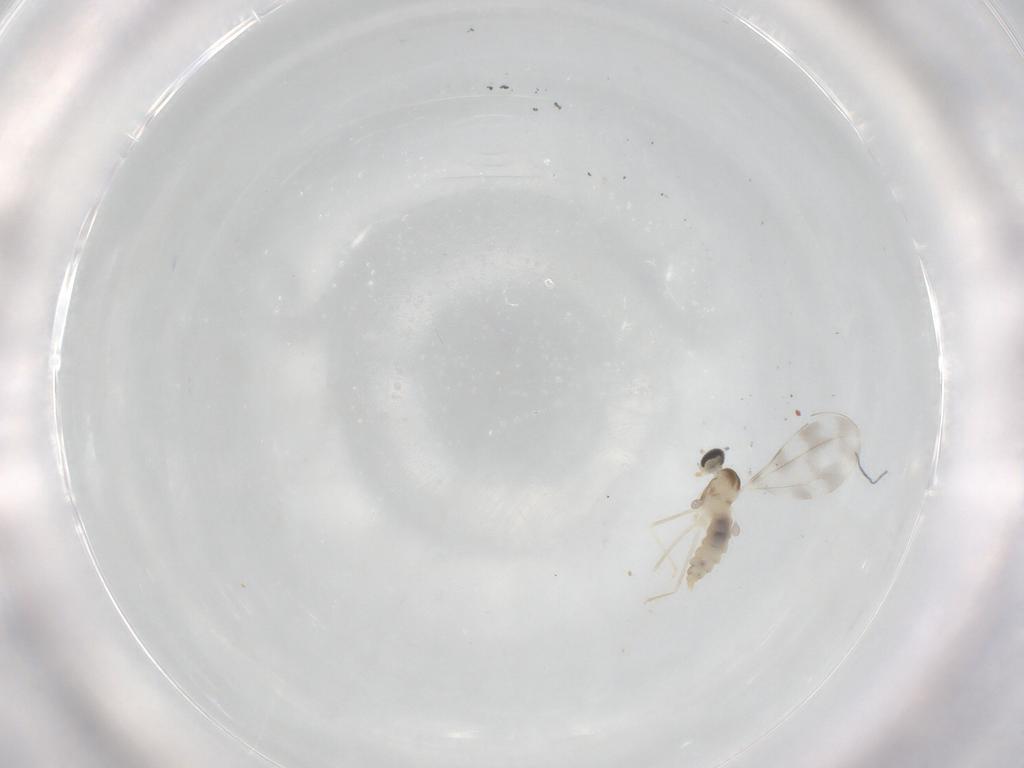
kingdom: Animalia
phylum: Arthropoda
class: Insecta
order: Diptera
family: Cecidomyiidae
